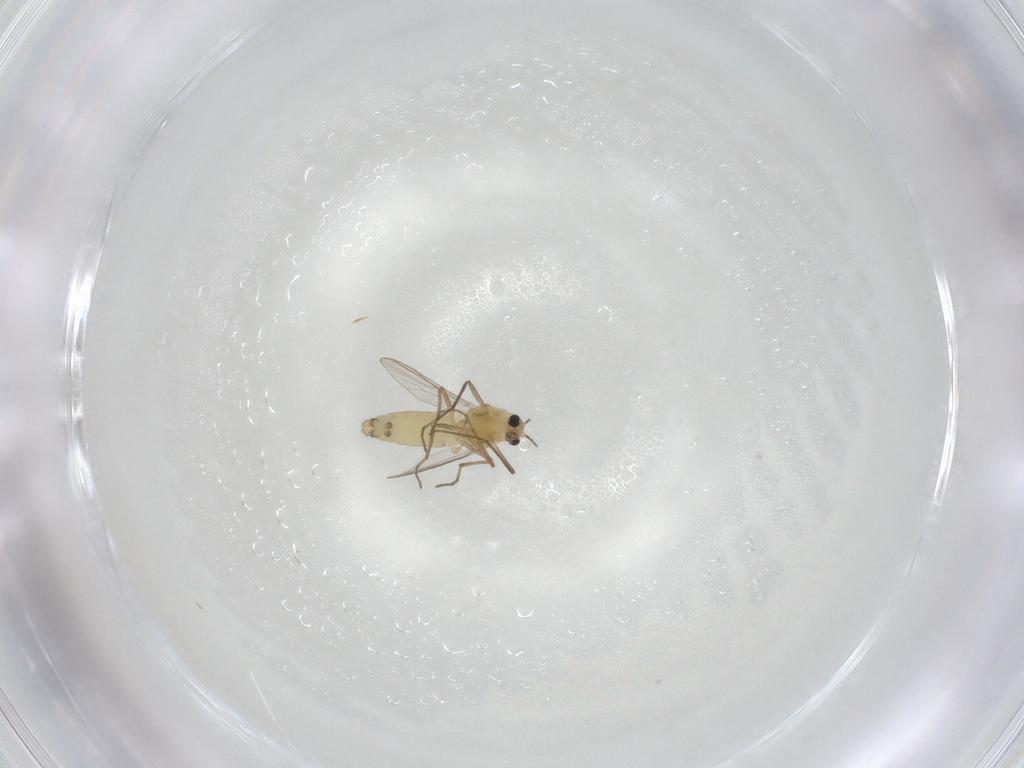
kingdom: Animalia
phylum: Arthropoda
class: Insecta
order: Diptera
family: Chironomidae
